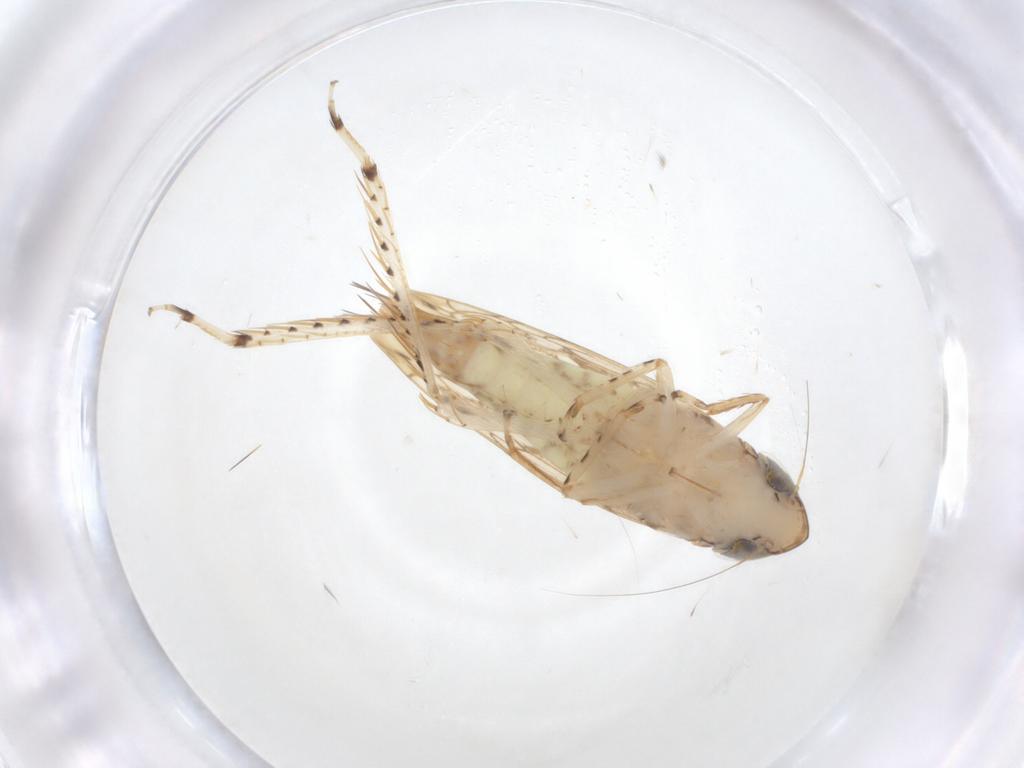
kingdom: Animalia
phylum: Arthropoda
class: Insecta
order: Hemiptera
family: Cicadellidae
